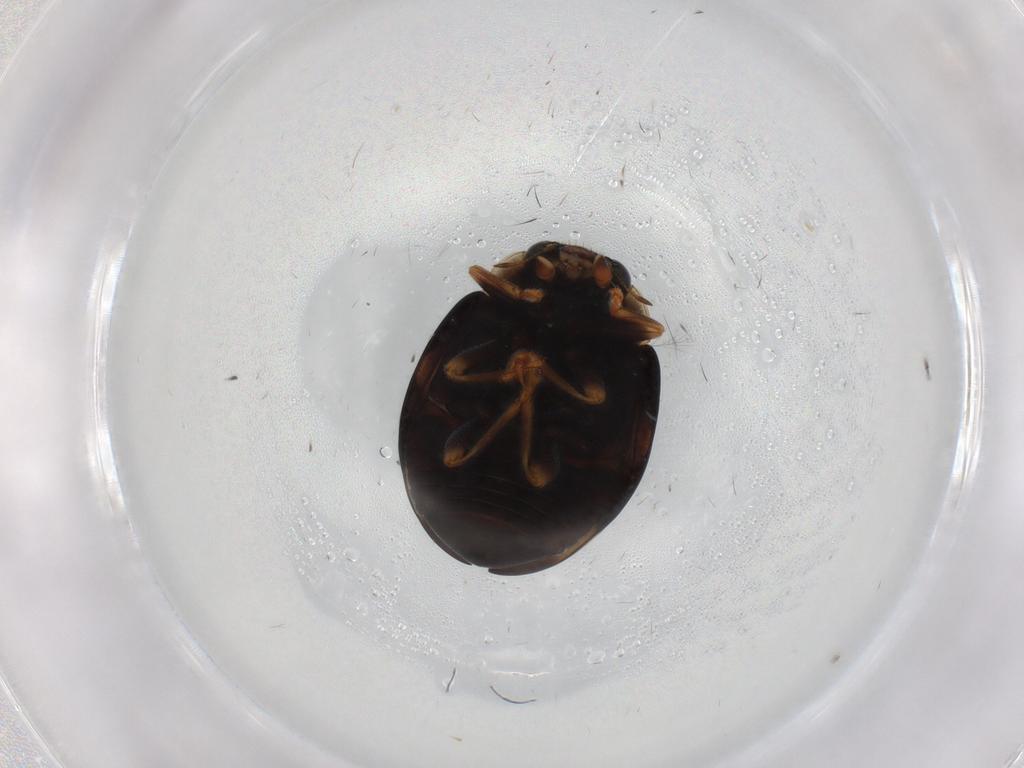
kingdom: Animalia
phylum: Arthropoda
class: Insecta
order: Coleoptera
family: Coccinellidae
